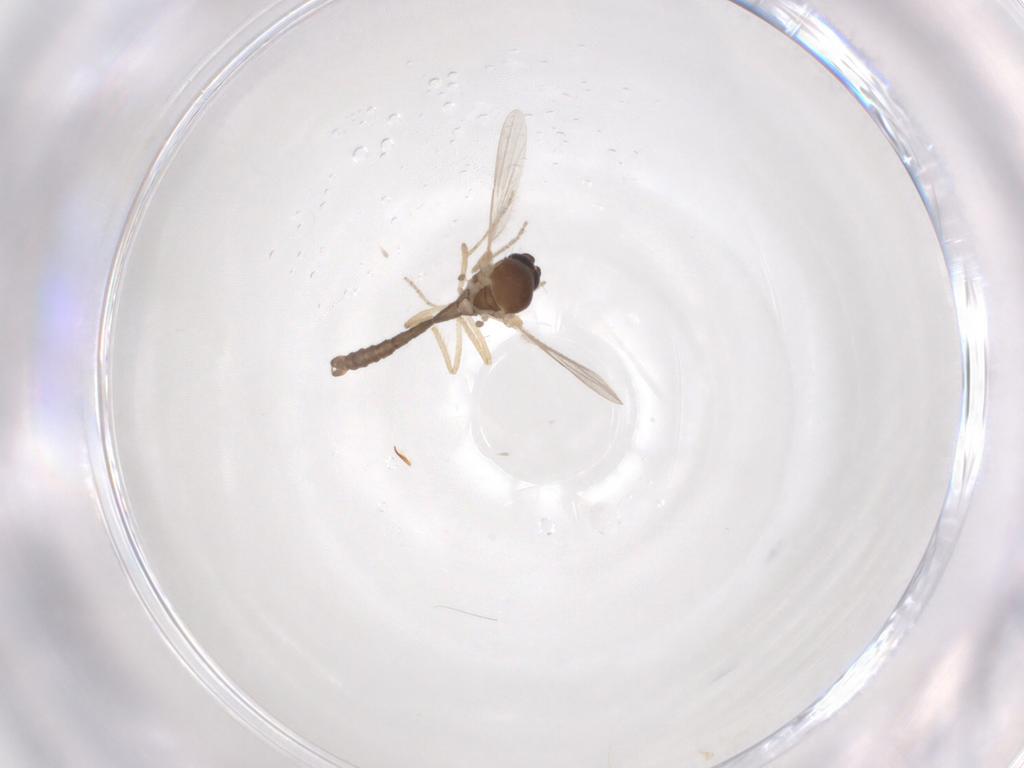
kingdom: Animalia
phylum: Arthropoda
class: Insecta
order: Diptera
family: Ceratopogonidae
